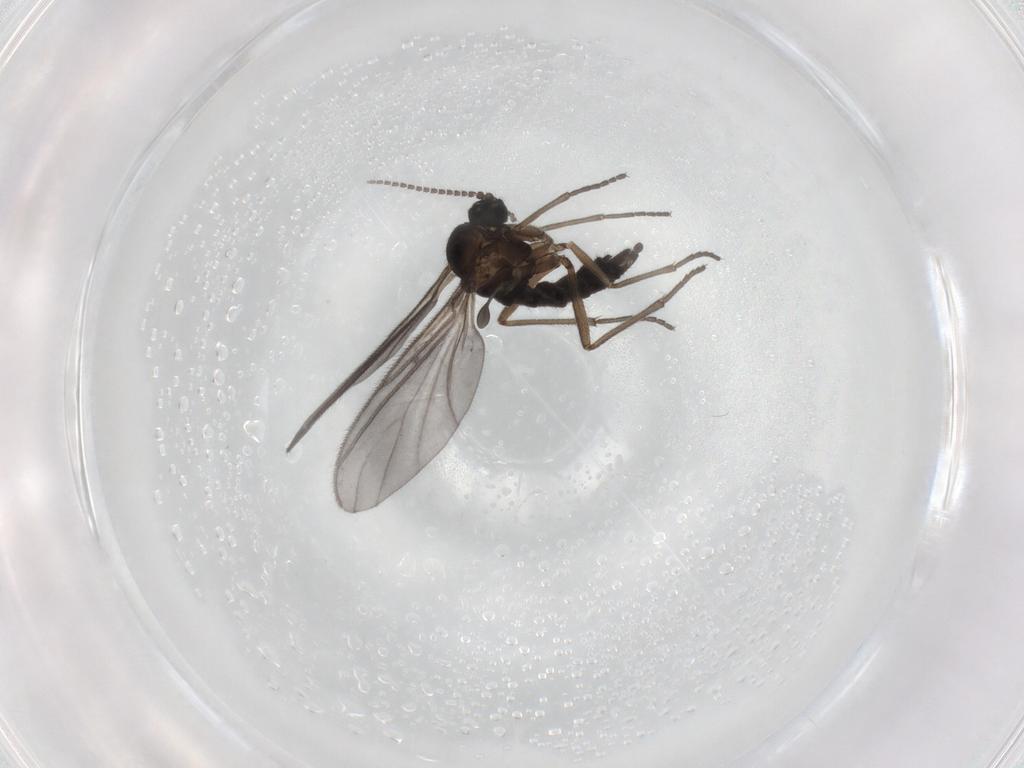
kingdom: Animalia
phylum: Arthropoda
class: Insecta
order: Diptera
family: Sciaridae
